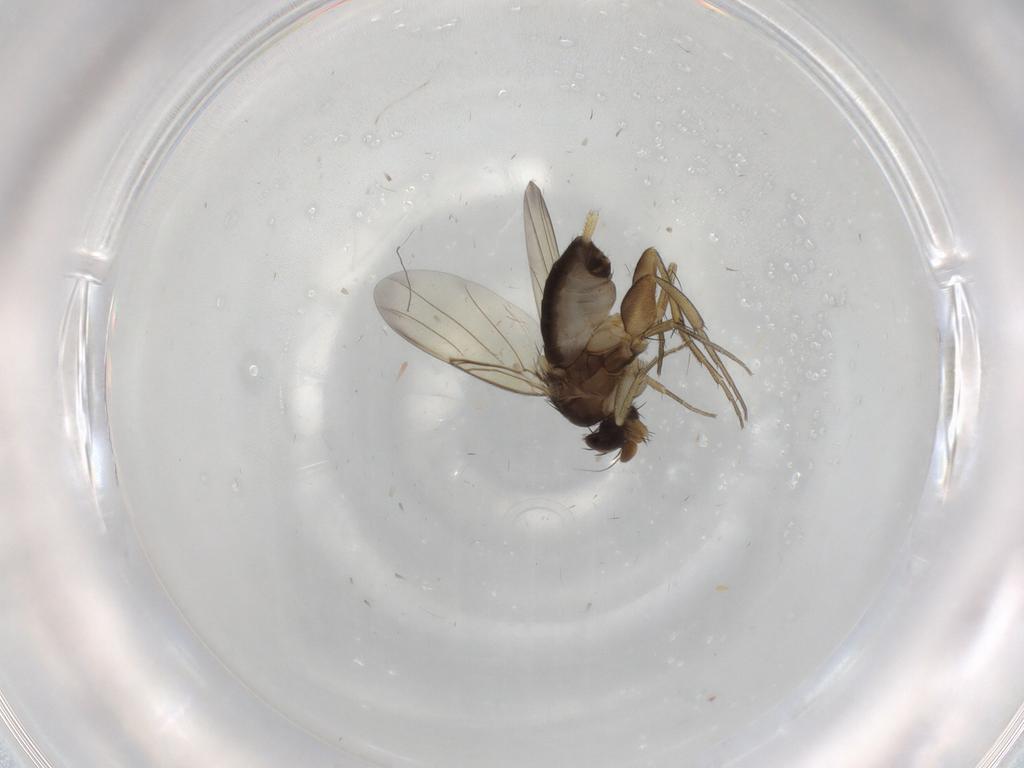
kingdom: Animalia
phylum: Arthropoda
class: Insecta
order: Diptera
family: Phoridae
